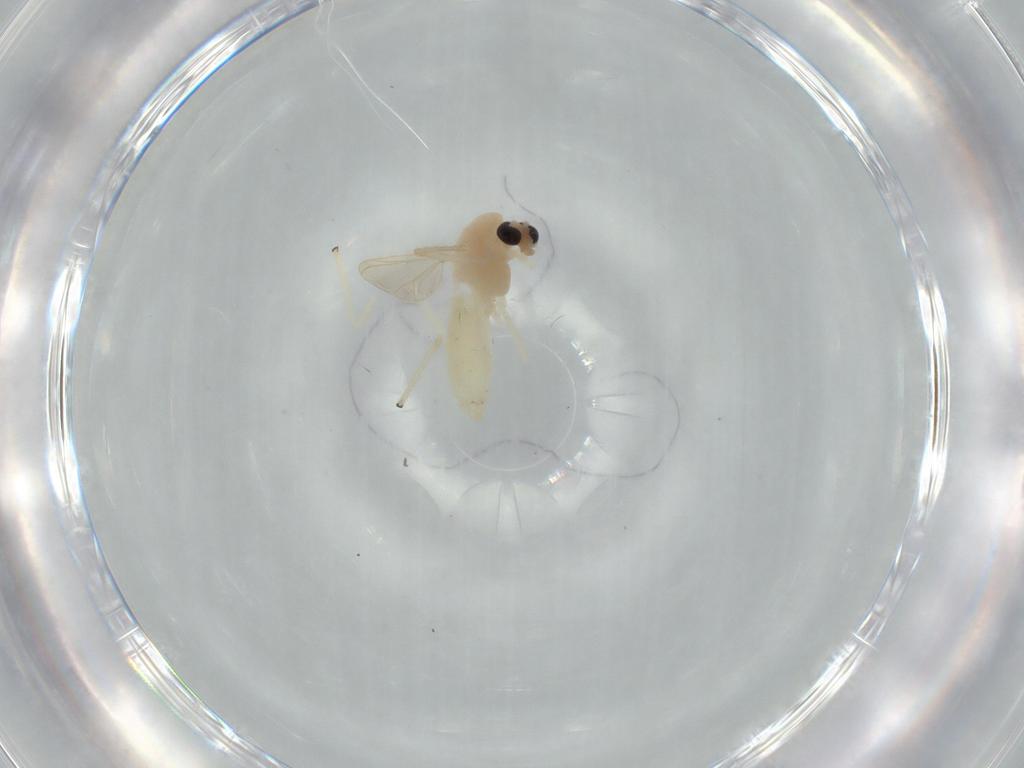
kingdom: Animalia
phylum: Arthropoda
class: Insecta
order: Diptera
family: Chironomidae
